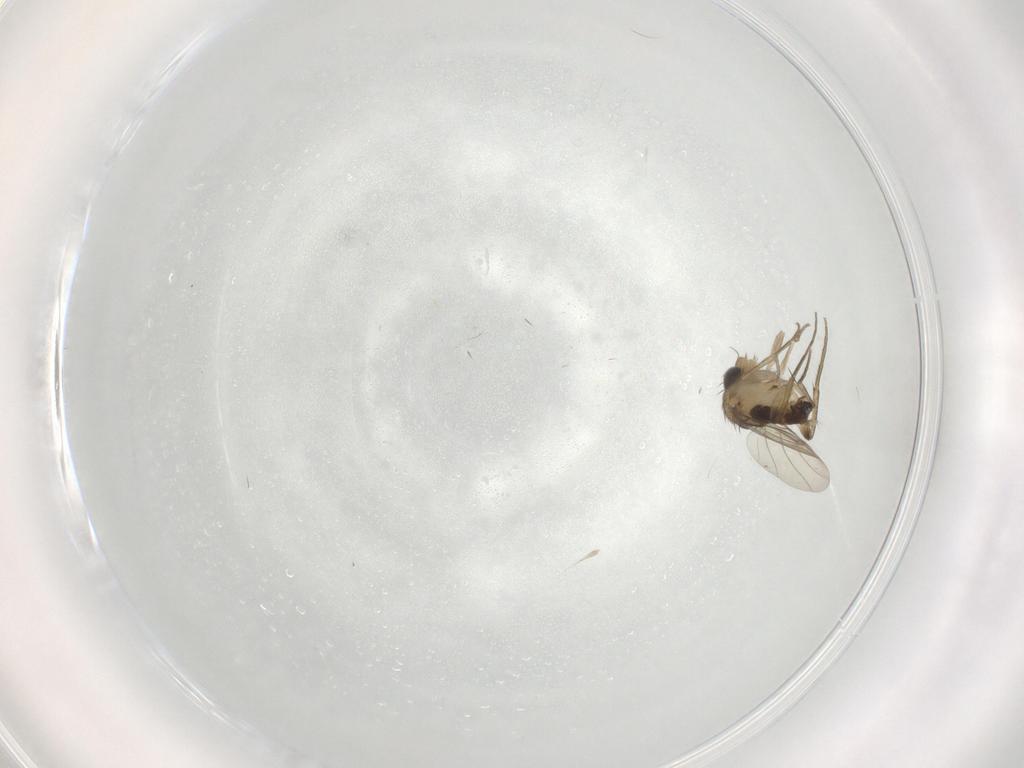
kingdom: Animalia
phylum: Arthropoda
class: Insecta
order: Diptera
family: Phoridae
